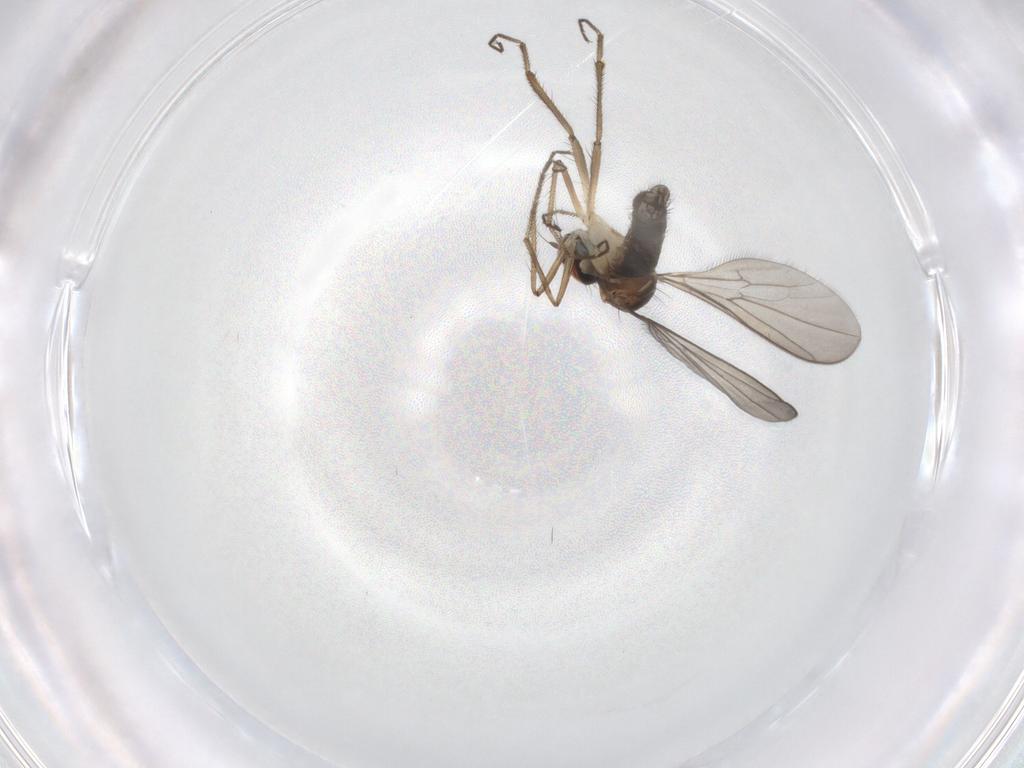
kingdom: Animalia
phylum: Arthropoda
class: Insecta
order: Diptera
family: Hybotidae
